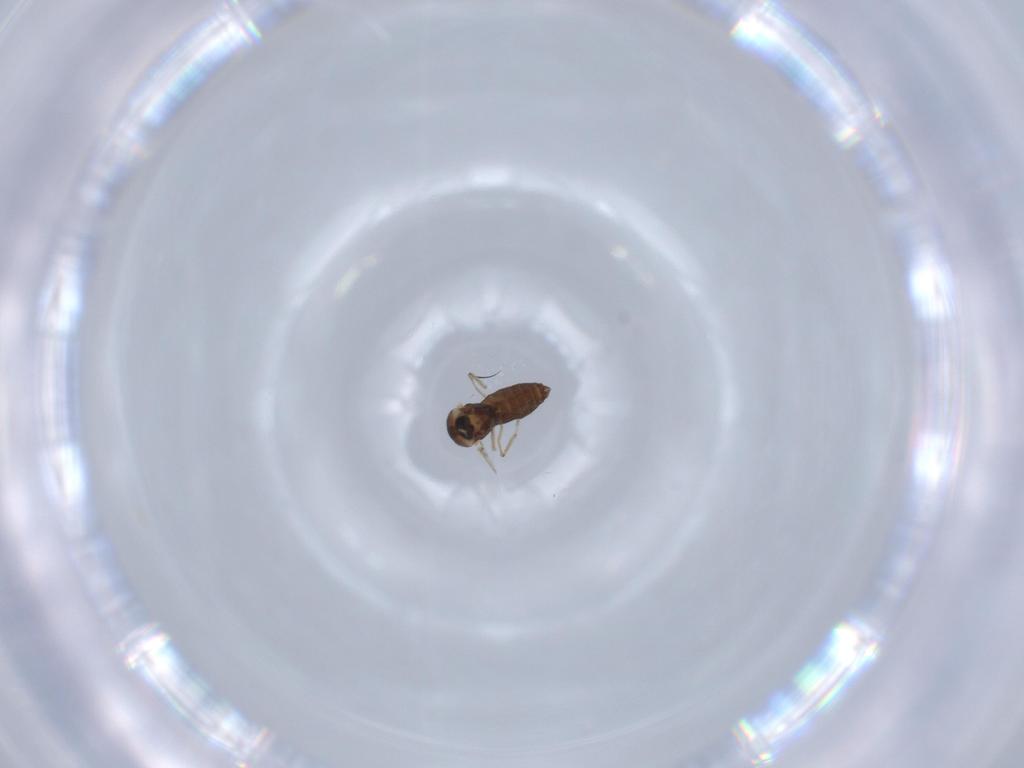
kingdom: Animalia
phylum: Arthropoda
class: Insecta
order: Diptera
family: Ceratopogonidae
